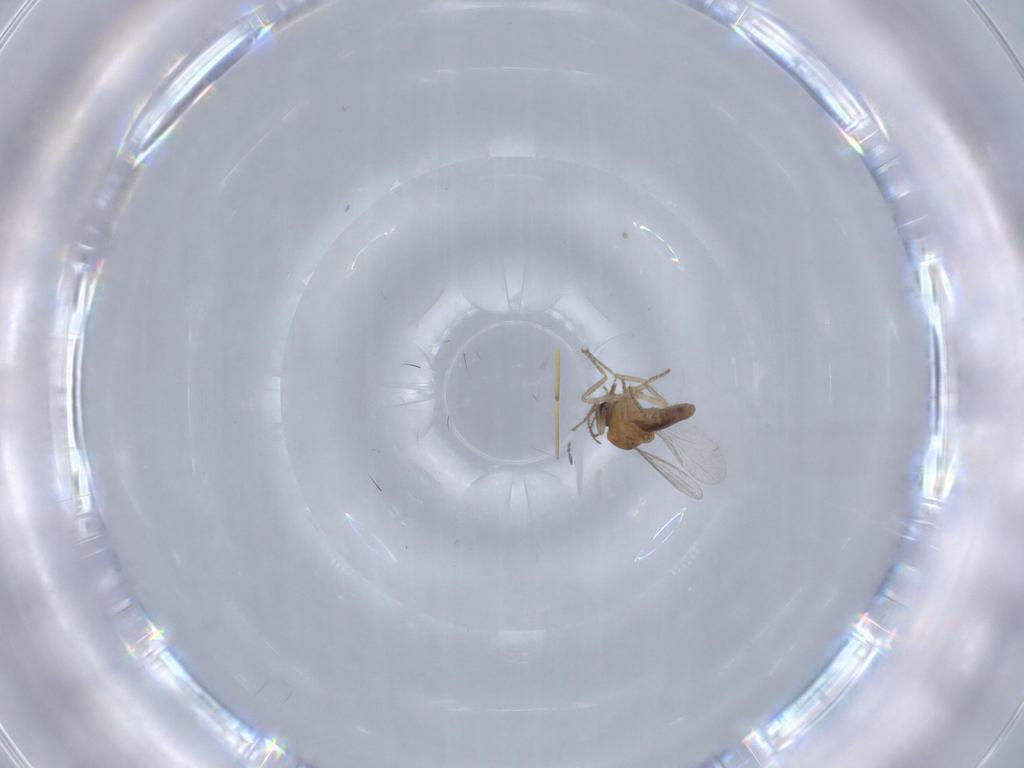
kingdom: Animalia
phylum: Arthropoda
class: Insecta
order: Diptera
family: Ceratopogonidae
